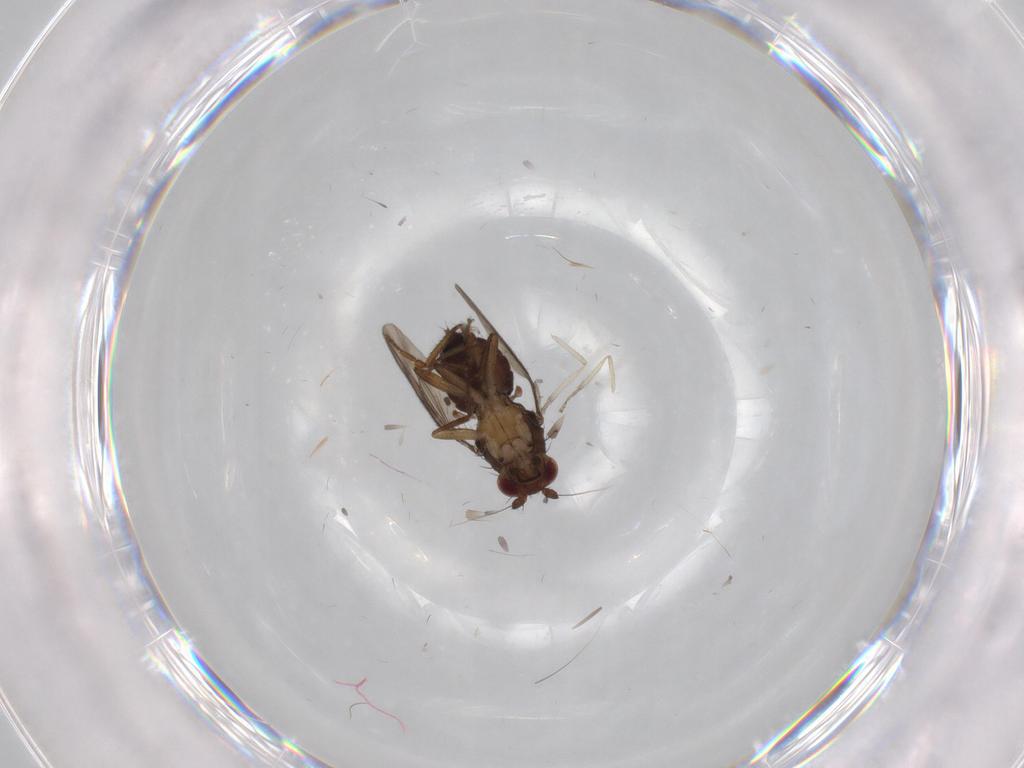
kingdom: Animalia
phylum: Arthropoda
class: Insecta
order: Diptera
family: Sphaeroceridae
